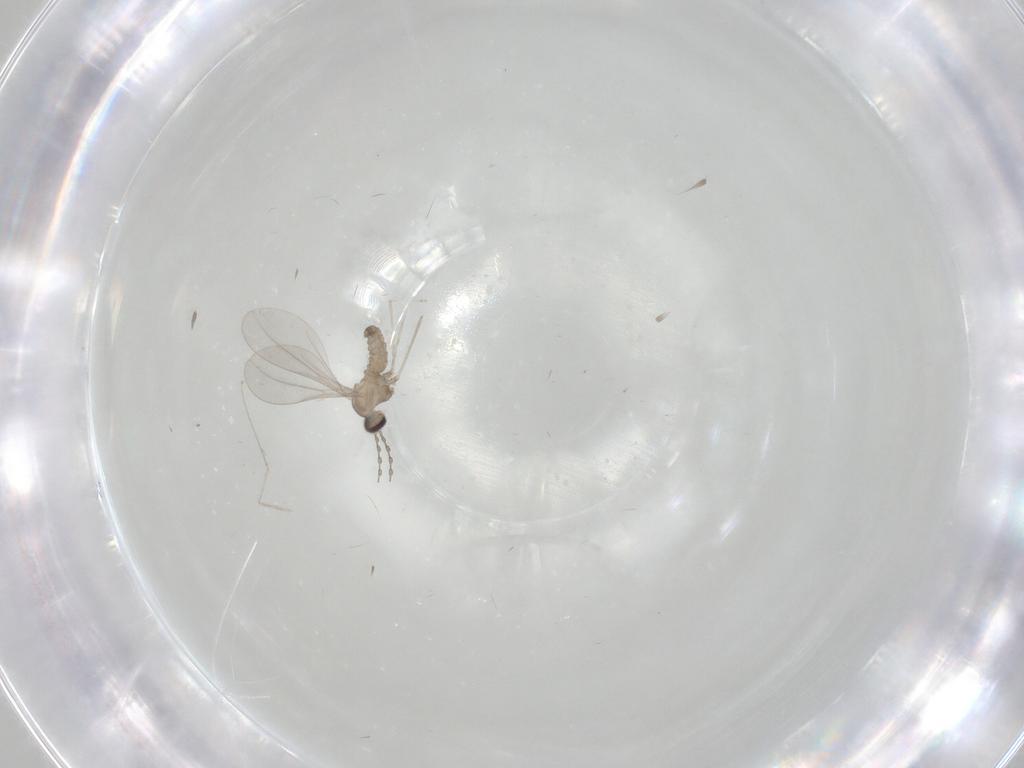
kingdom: Animalia
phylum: Arthropoda
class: Insecta
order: Diptera
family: Cecidomyiidae
